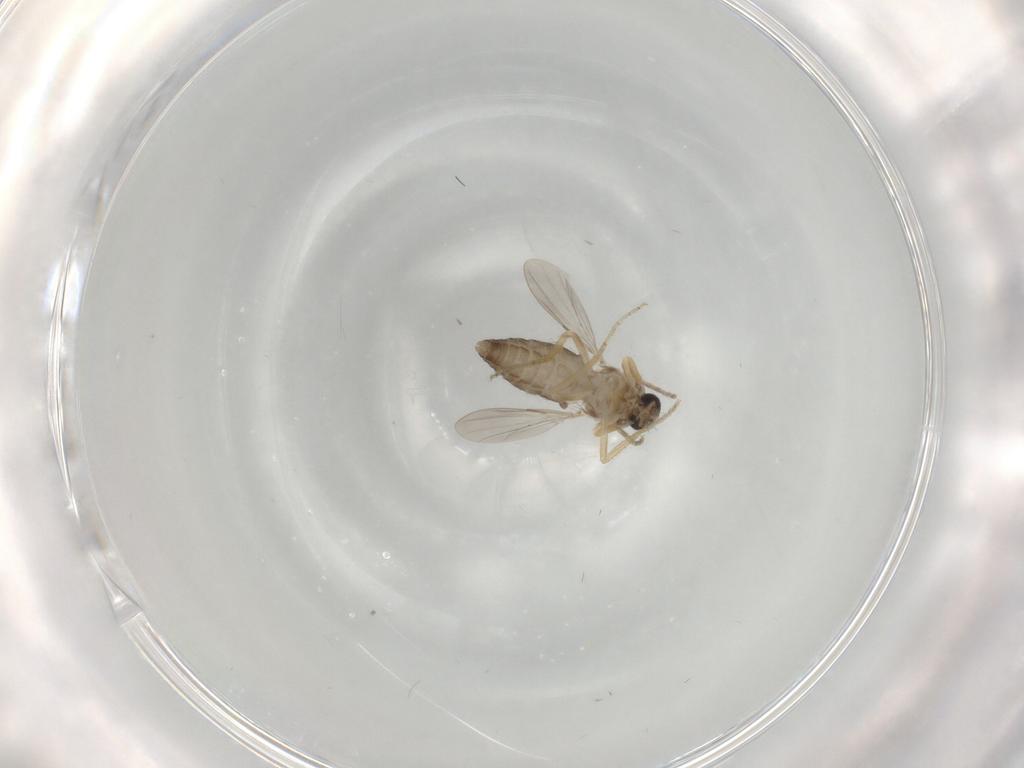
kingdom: Animalia
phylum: Arthropoda
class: Insecta
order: Diptera
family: Ceratopogonidae
